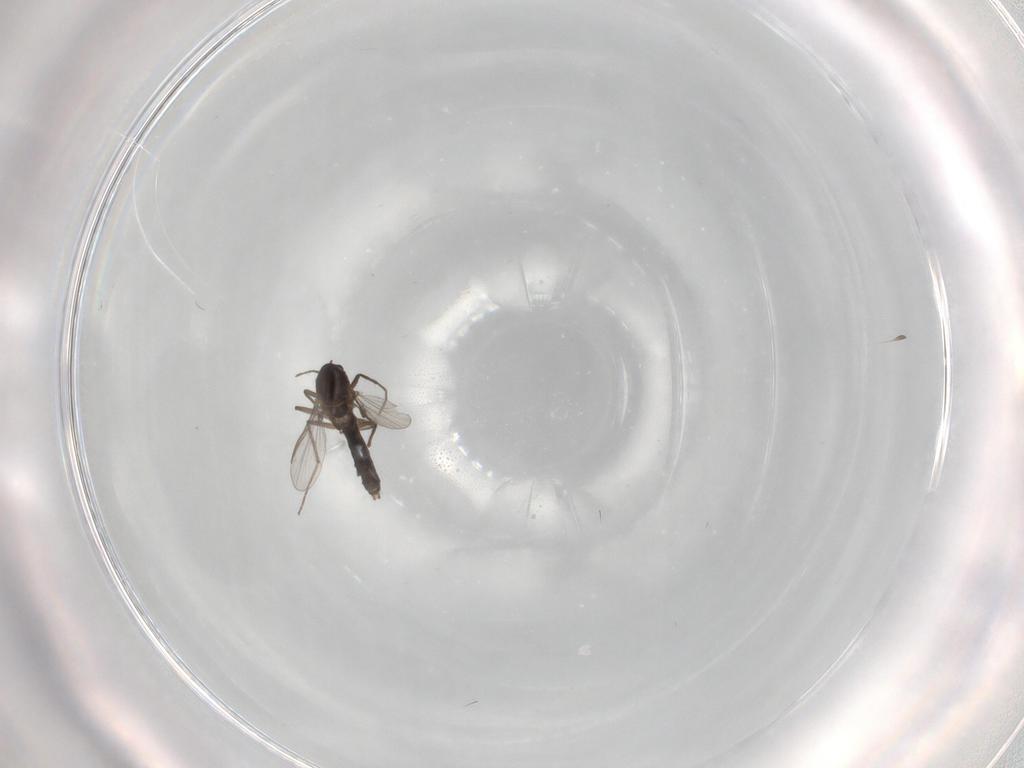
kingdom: Animalia
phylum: Arthropoda
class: Insecta
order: Diptera
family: Chironomidae
